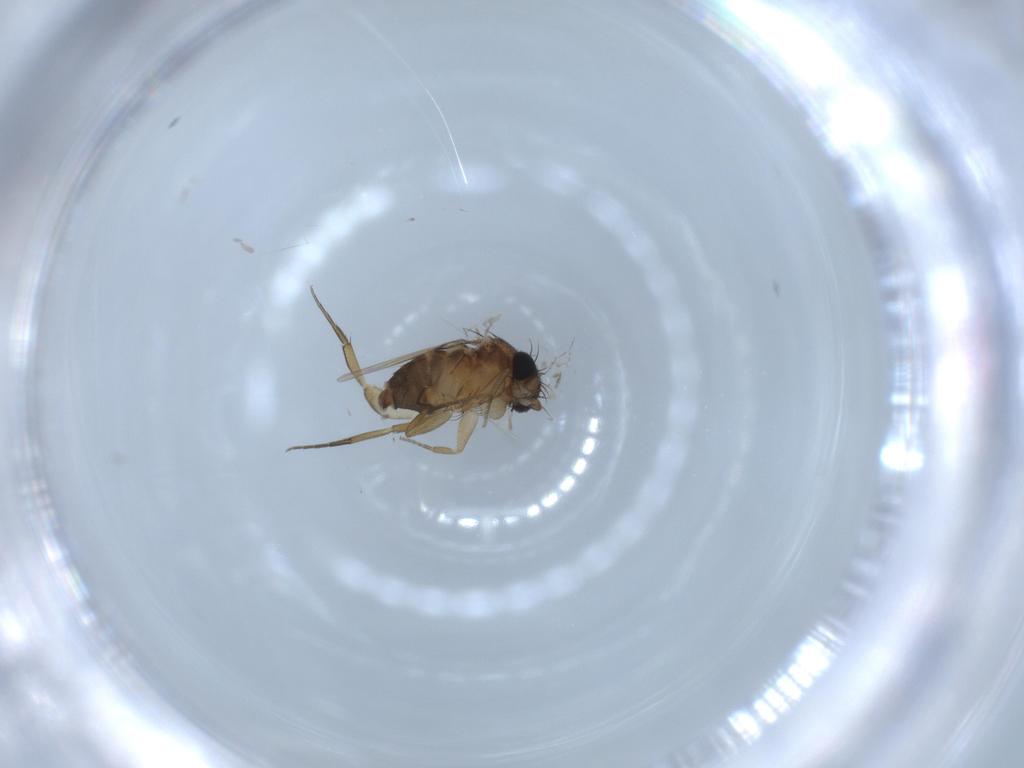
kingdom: Animalia
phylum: Arthropoda
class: Insecta
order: Diptera
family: Phoridae
